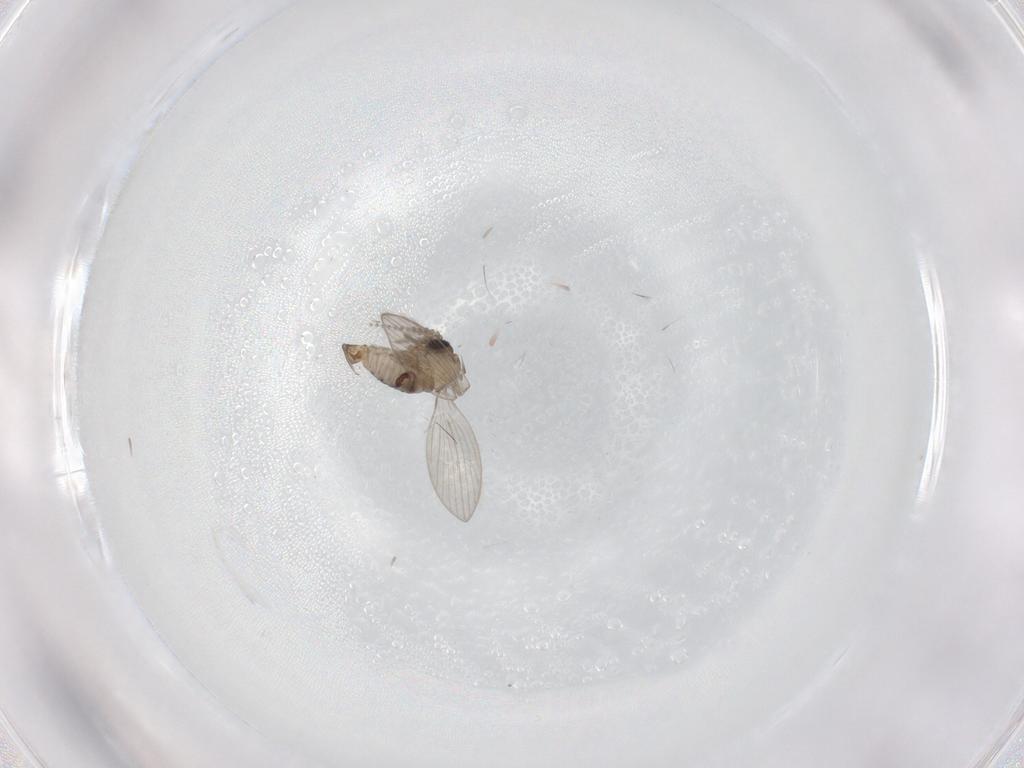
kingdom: Animalia
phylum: Arthropoda
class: Insecta
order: Diptera
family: Psychodidae
